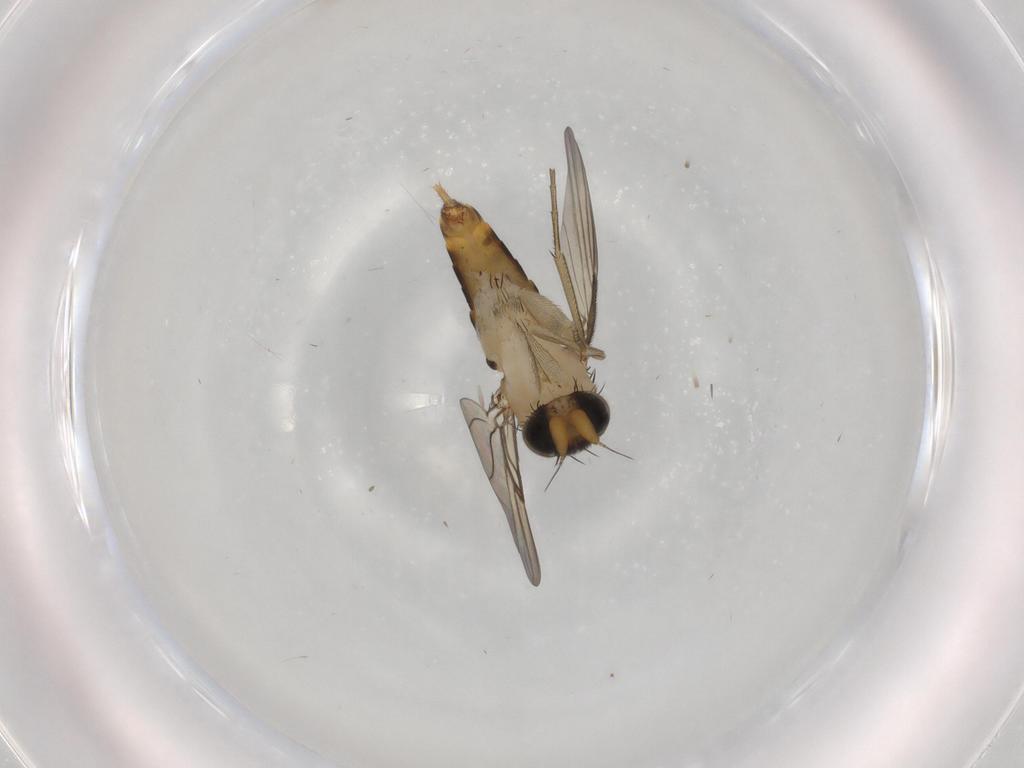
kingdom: Animalia
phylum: Arthropoda
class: Insecta
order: Diptera
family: Phoridae
